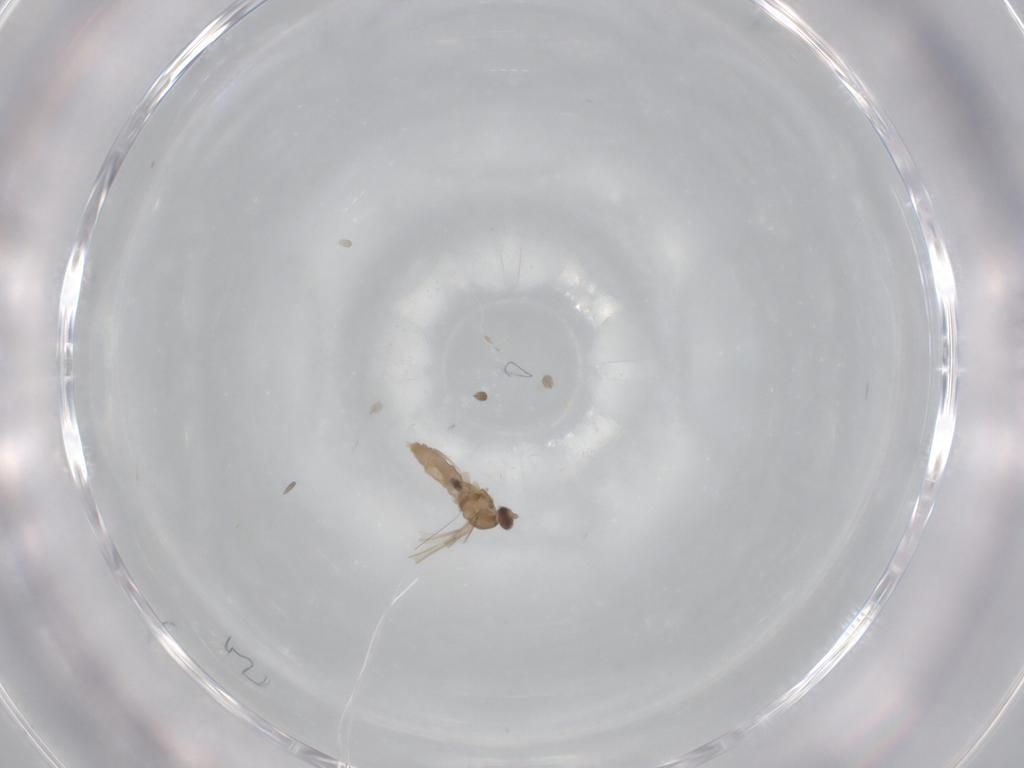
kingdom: Animalia
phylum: Arthropoda
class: Insecta
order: Diptera
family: Cecidomyiidae
